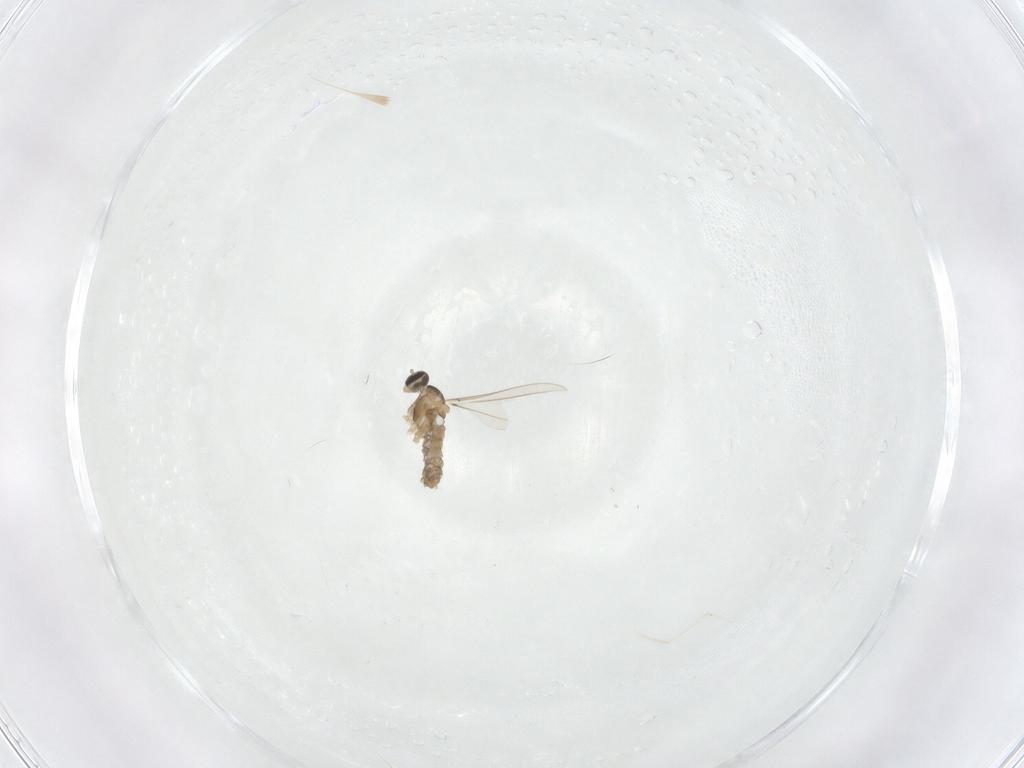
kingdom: Animalia
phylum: Arthropoda
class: Insecta
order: Diptera
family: Cecidomyiidae
